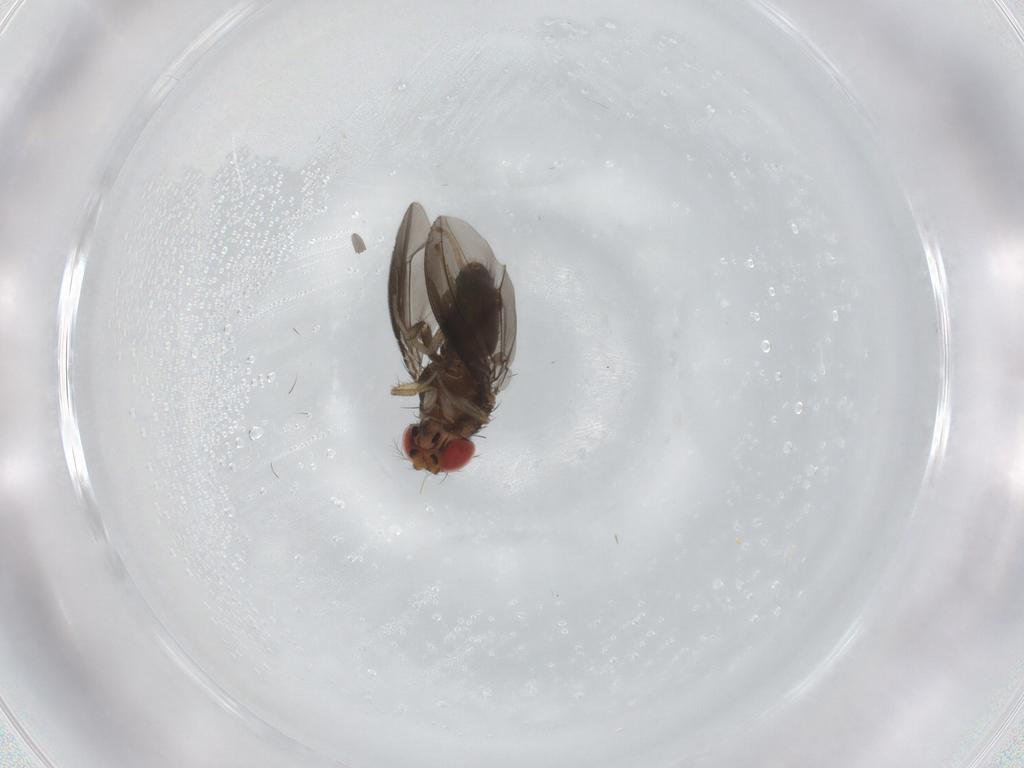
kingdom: Animalia
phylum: Arthropoda
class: Insecta
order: Diptera
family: Drosophilidae
